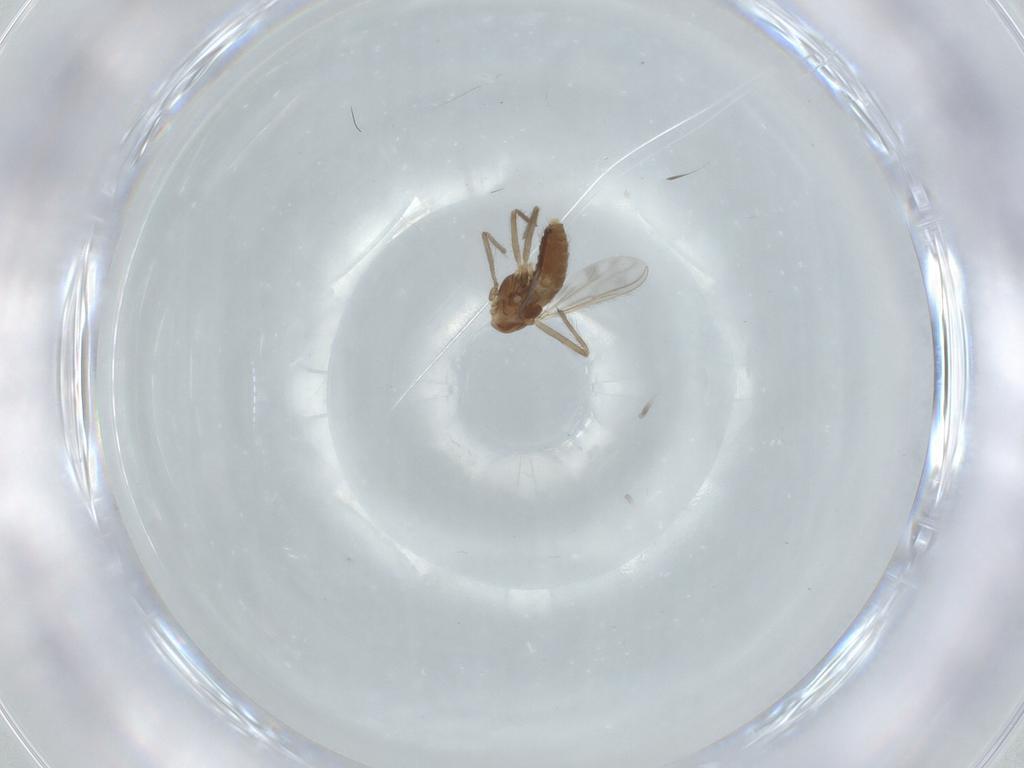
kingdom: Animalia
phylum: Arthropoda
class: Insecta
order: Diptera
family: Chironomidae
